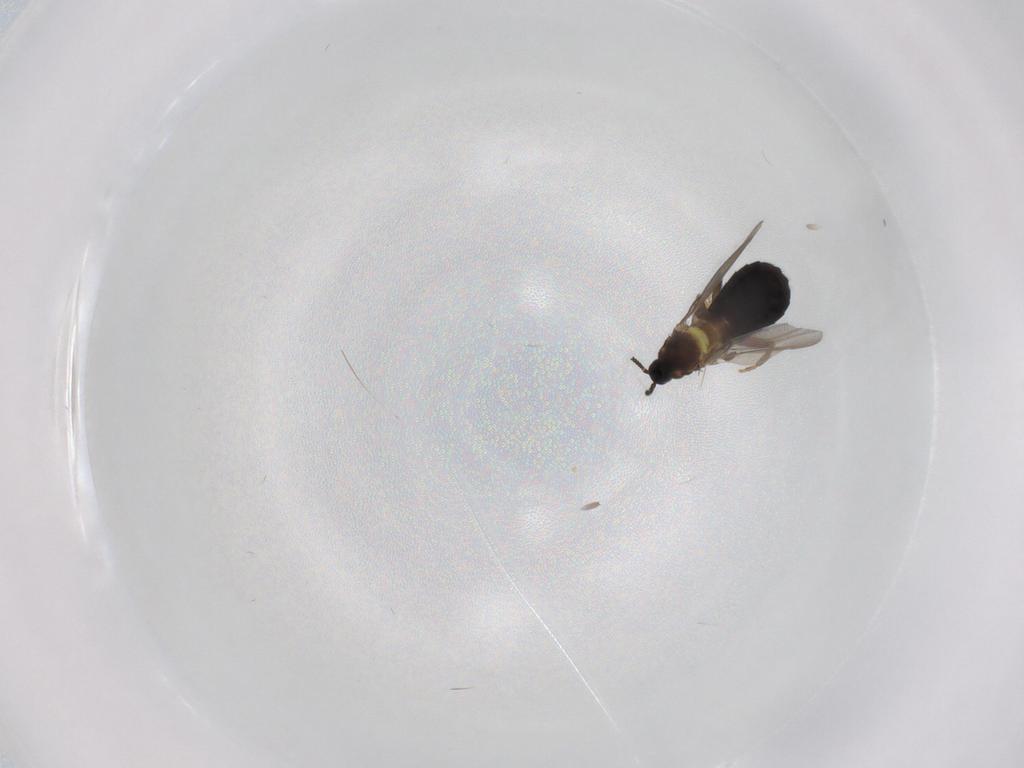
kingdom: Animalia
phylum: Arthropoda
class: Insecta
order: Diptera
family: Scatopsidae
